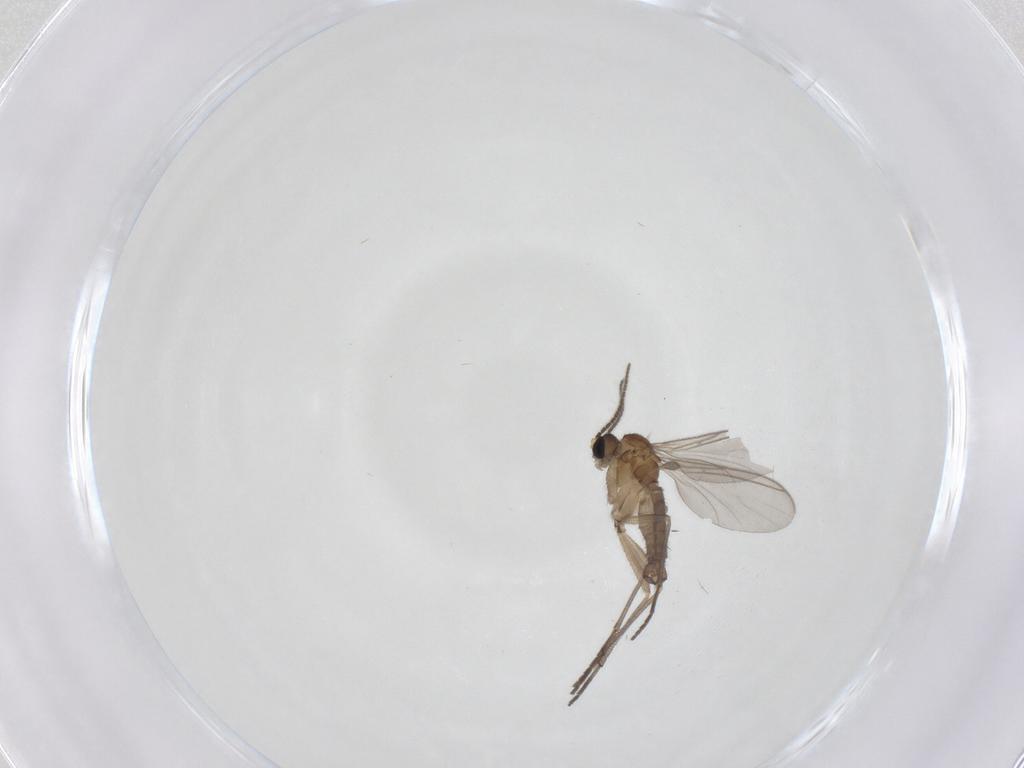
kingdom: Animalia
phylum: Arthropoda
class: Insecta
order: Diptera
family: Sciaridae
